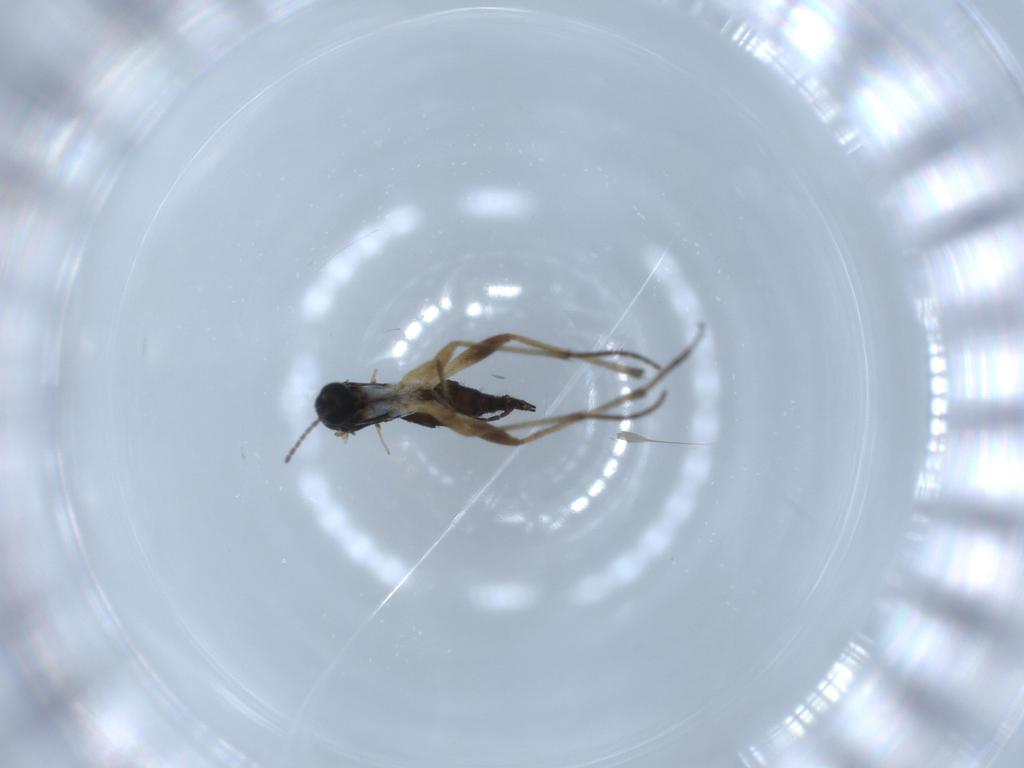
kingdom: Animalia
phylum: Arthropoda
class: Insecta
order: Diptera
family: Sciaridae
